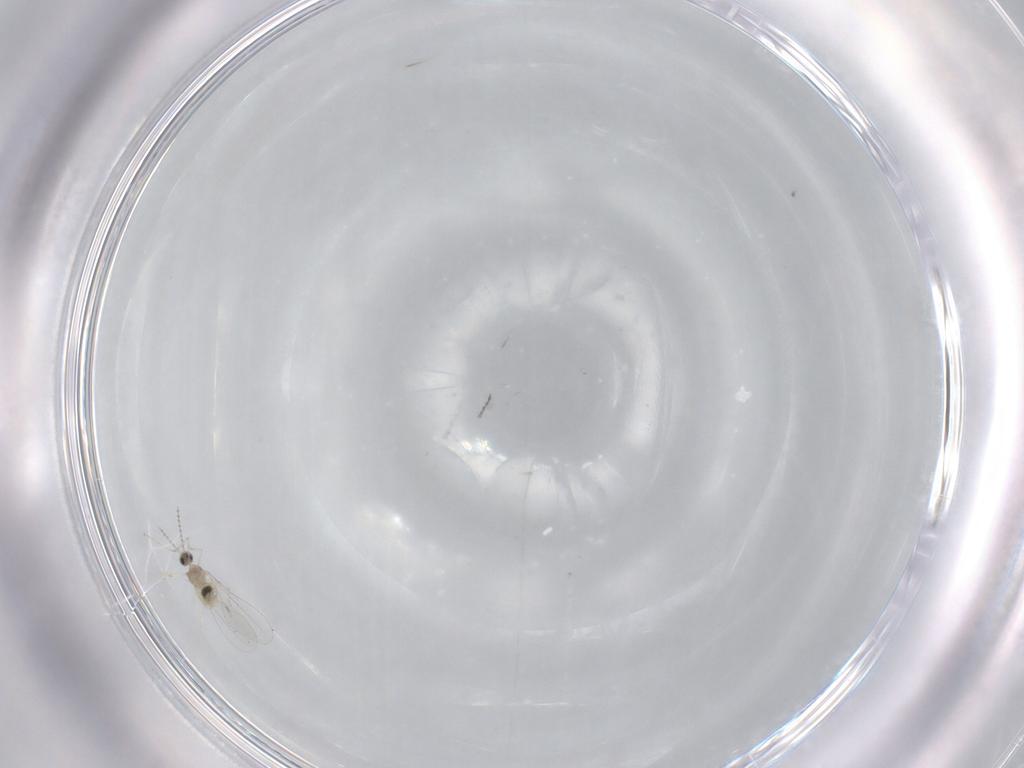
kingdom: Animalia
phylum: Arthropoda
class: Insecta
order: Diptera
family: Cecidomyiidae
